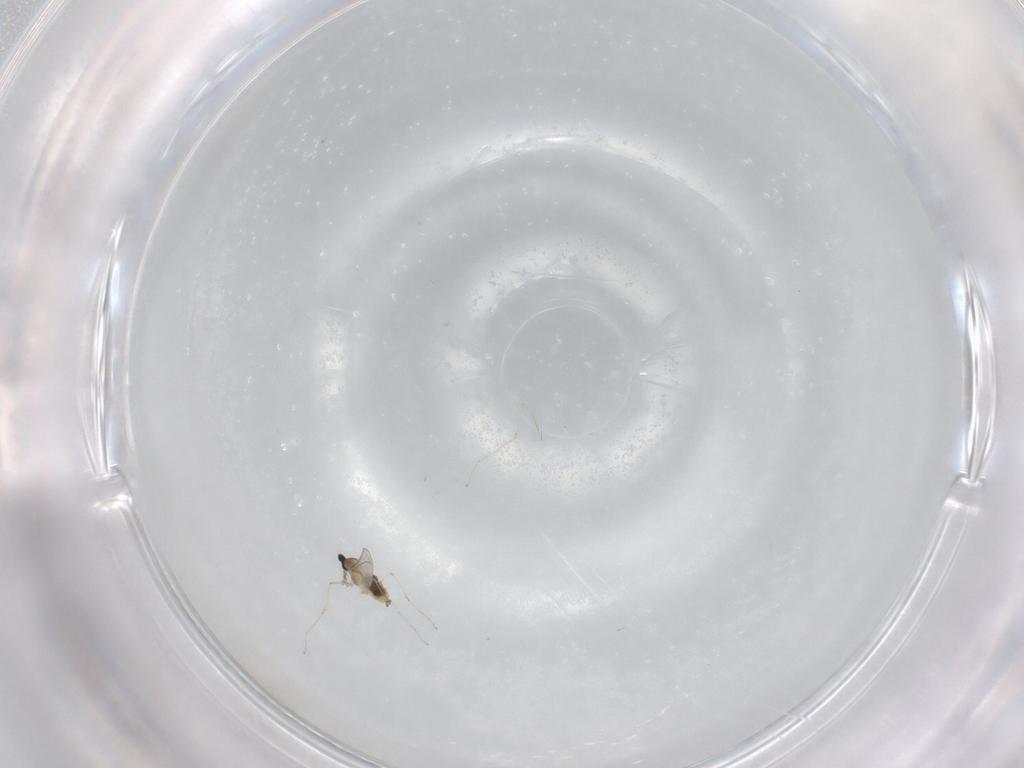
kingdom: Animalia
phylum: Arthropoda
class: Insecta
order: Diptera
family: Cecidomyiidae
